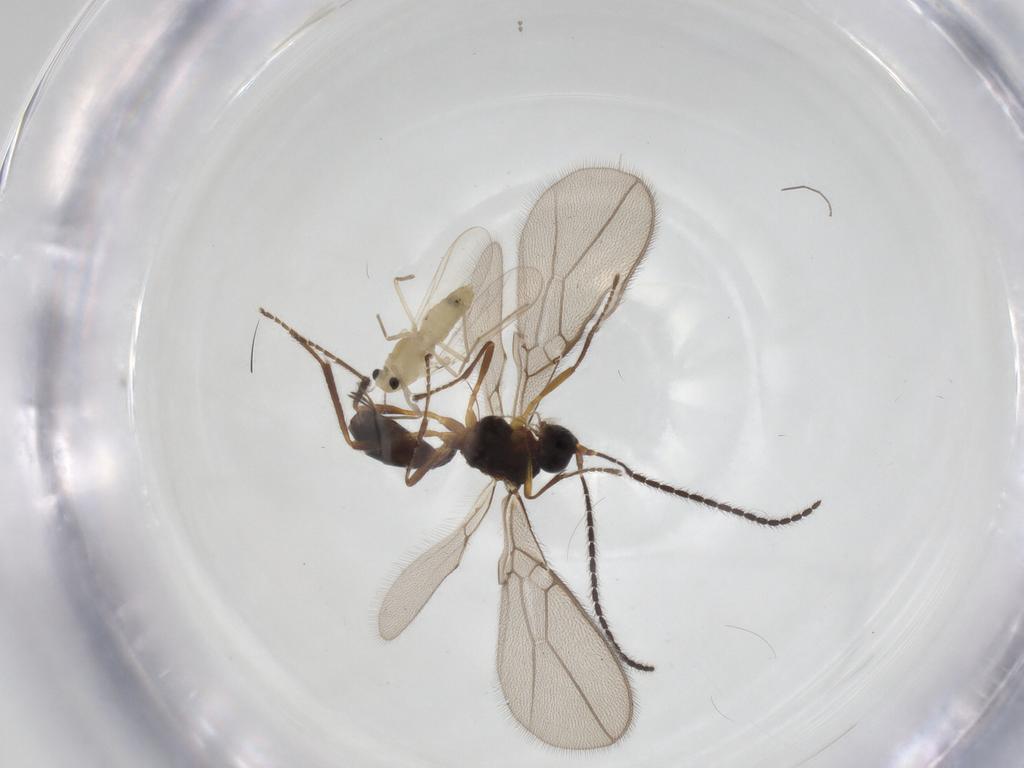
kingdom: Animalia
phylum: Arthropoda
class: Insecta
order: Diptera
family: Chironomidae
